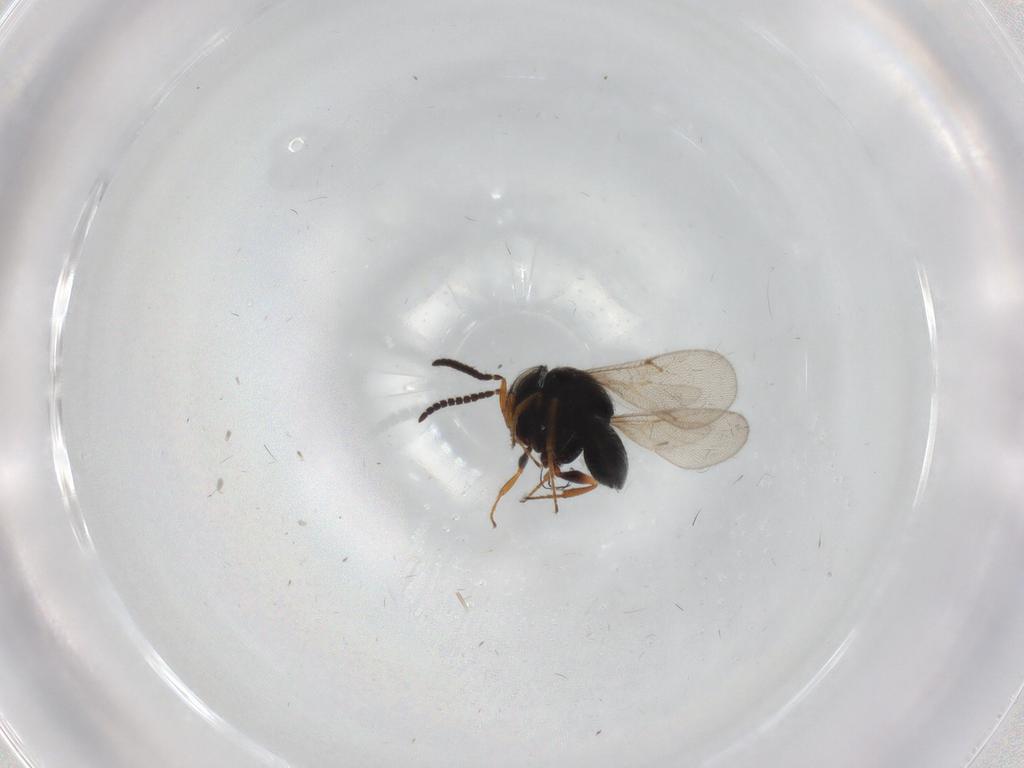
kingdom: Animalia
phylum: Arthropoda
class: Insecta
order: Hymenoptera
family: Scelionidae
